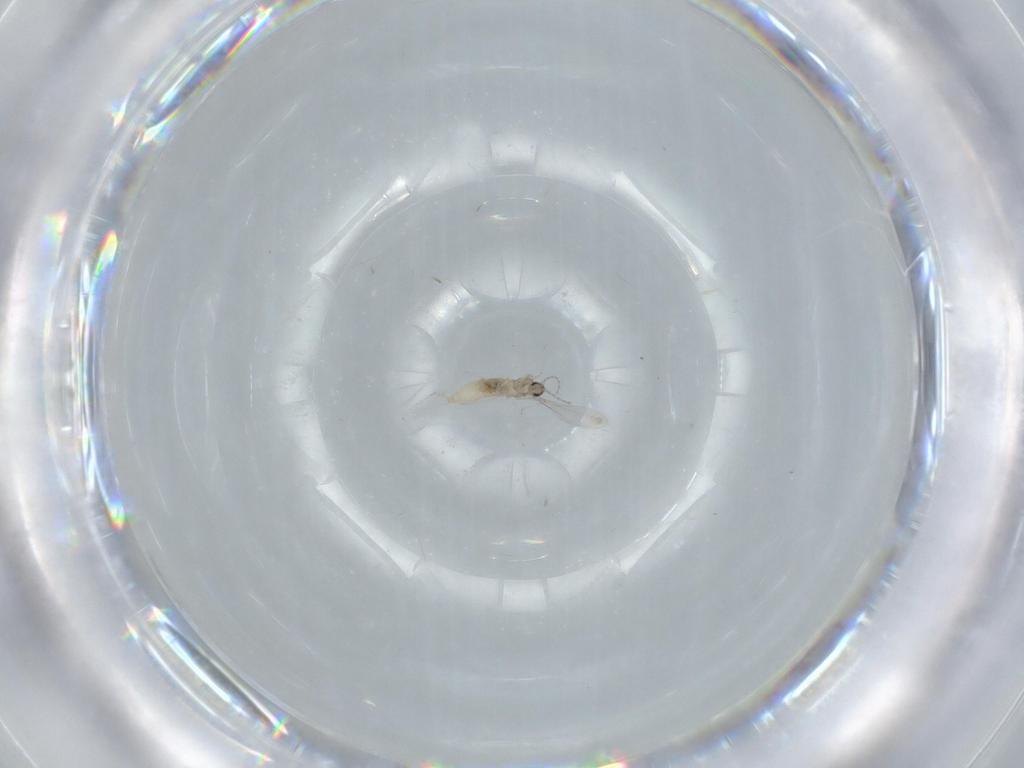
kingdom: Animalia
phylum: Arthropoda
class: Insecta
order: Diptera
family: Cecidomyiidae
